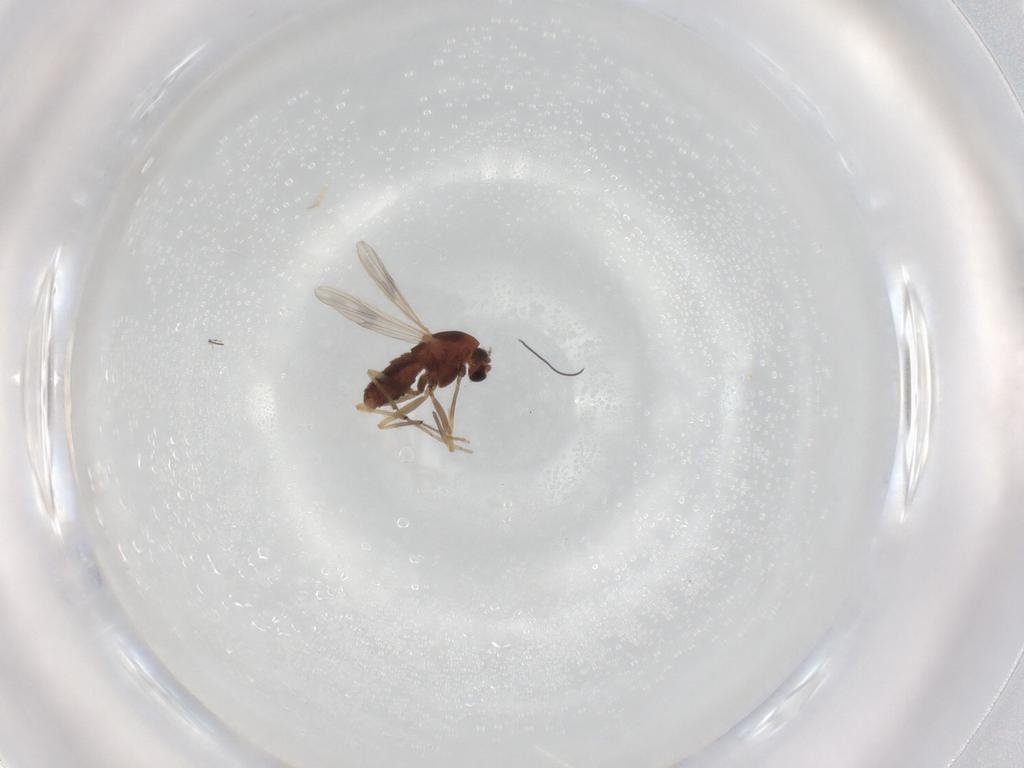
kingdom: Animalia
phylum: Arthropoda
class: Insecta
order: Diptera
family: Chironomidae
